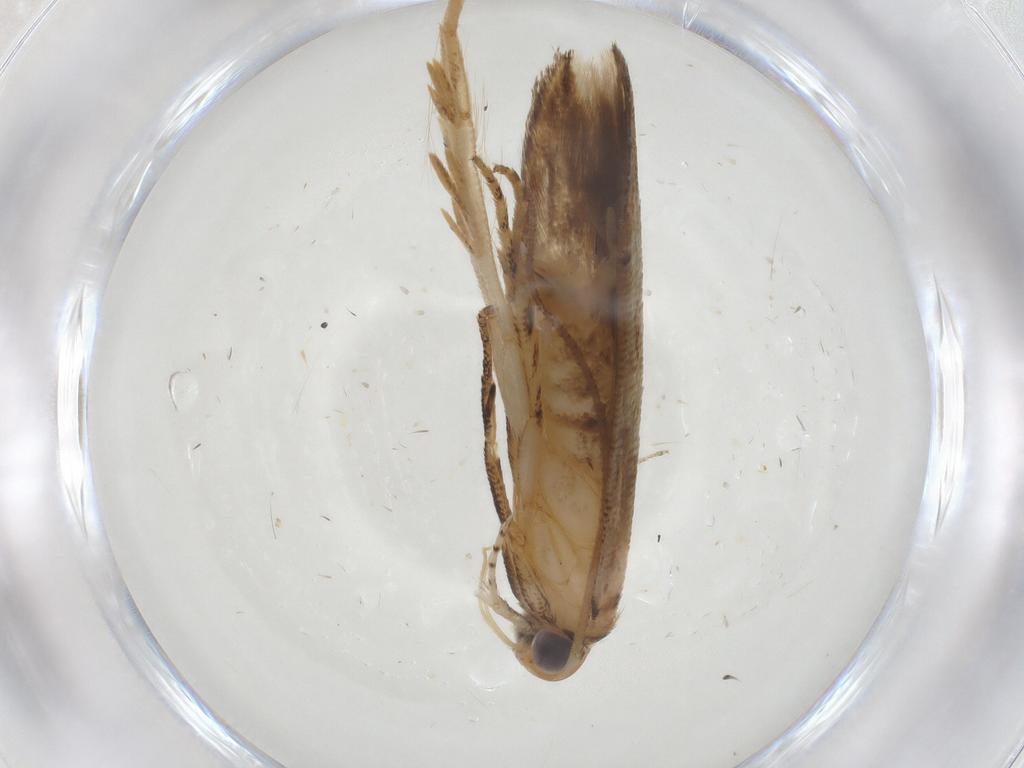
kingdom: Animalia
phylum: Arthropoda
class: Insecta
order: Lepidoptera
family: Momphidae
